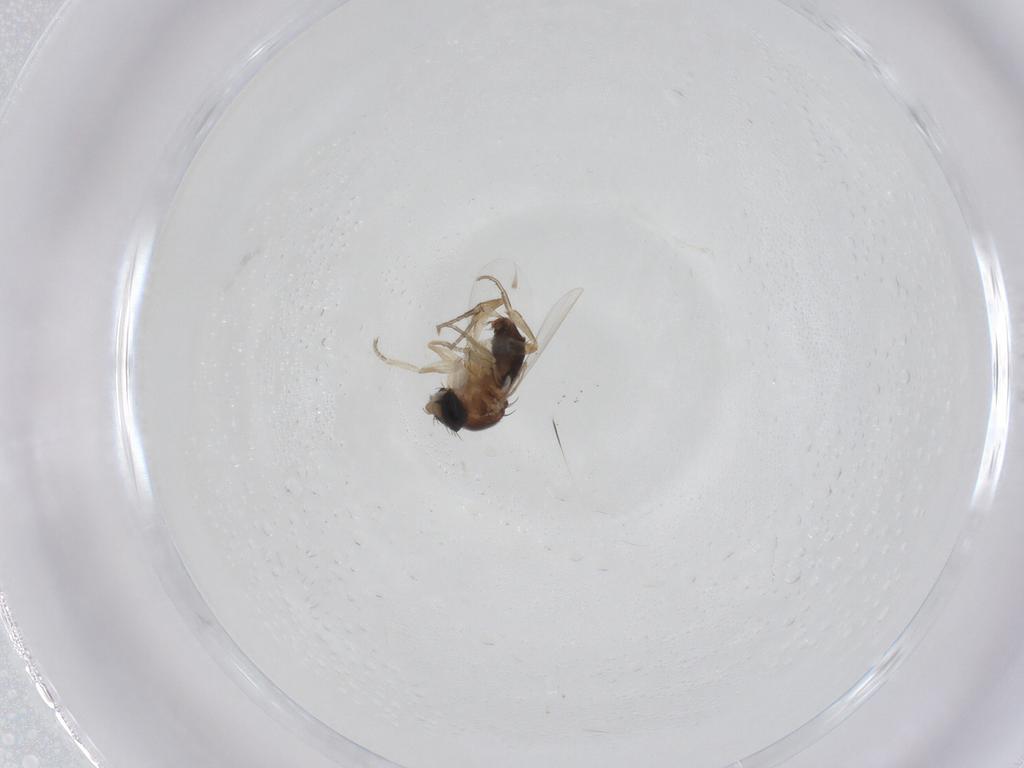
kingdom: Animalia
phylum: Arthropoda
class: Insecta
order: Diptera
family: Phoridae
